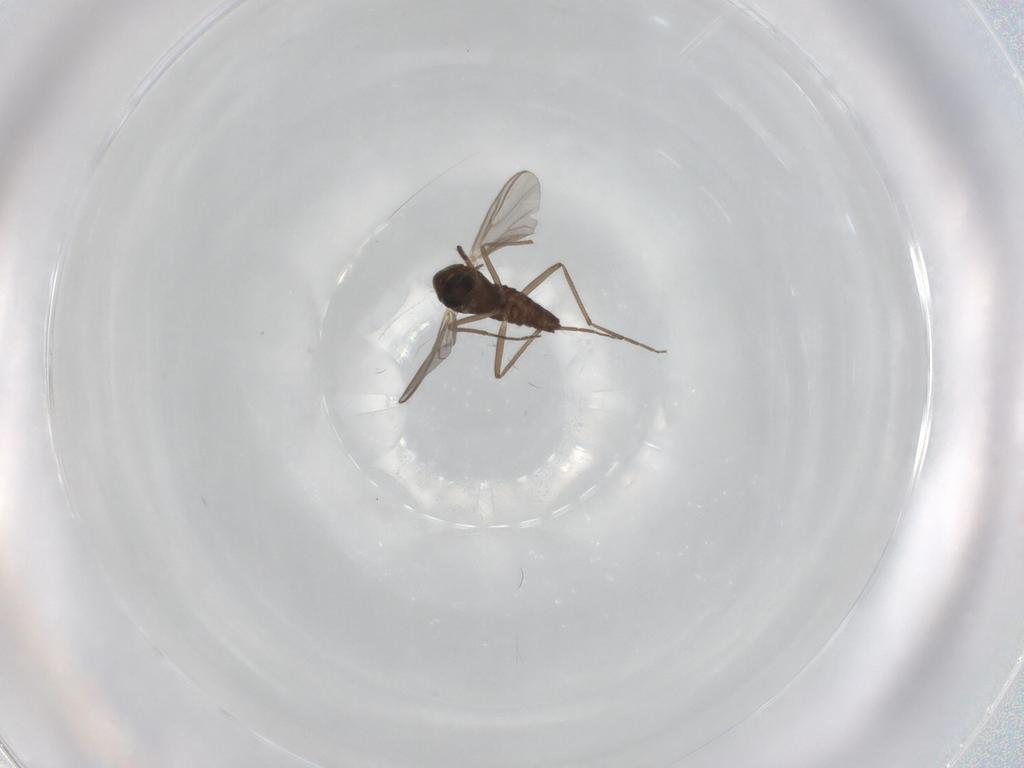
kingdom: Animalia
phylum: Arthropoda
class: Insecta
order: Diptera
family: Chironomidae
